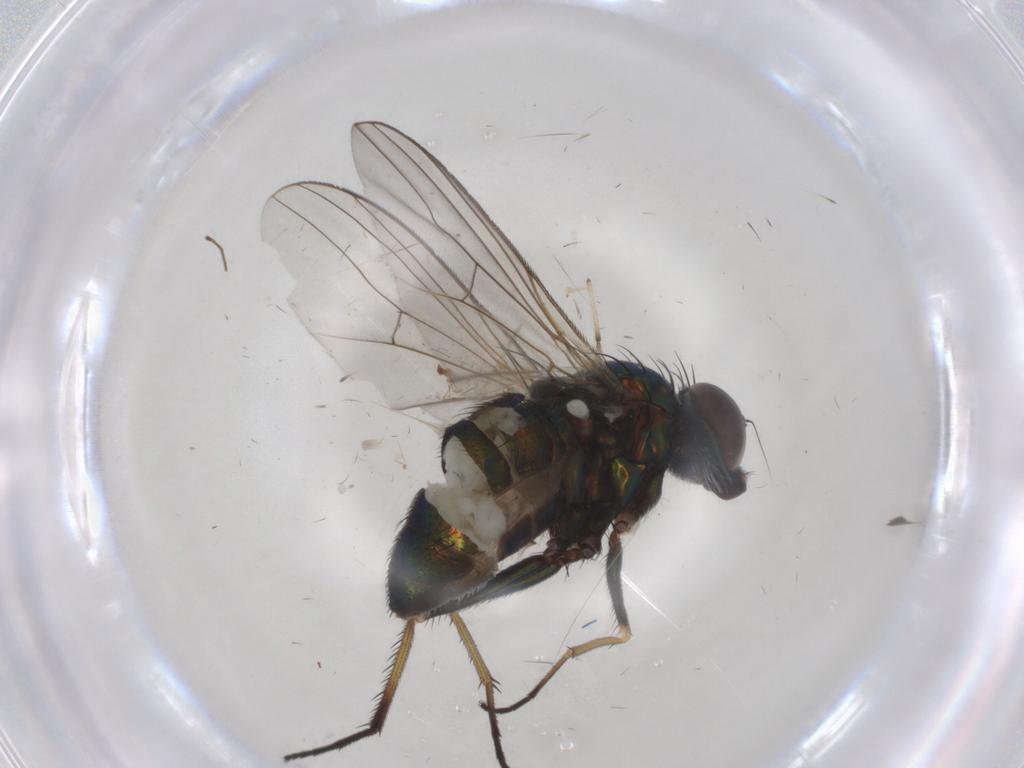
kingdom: Animalia
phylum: Arthropoda
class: Insecta
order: Diptera
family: Dolichopodidae
